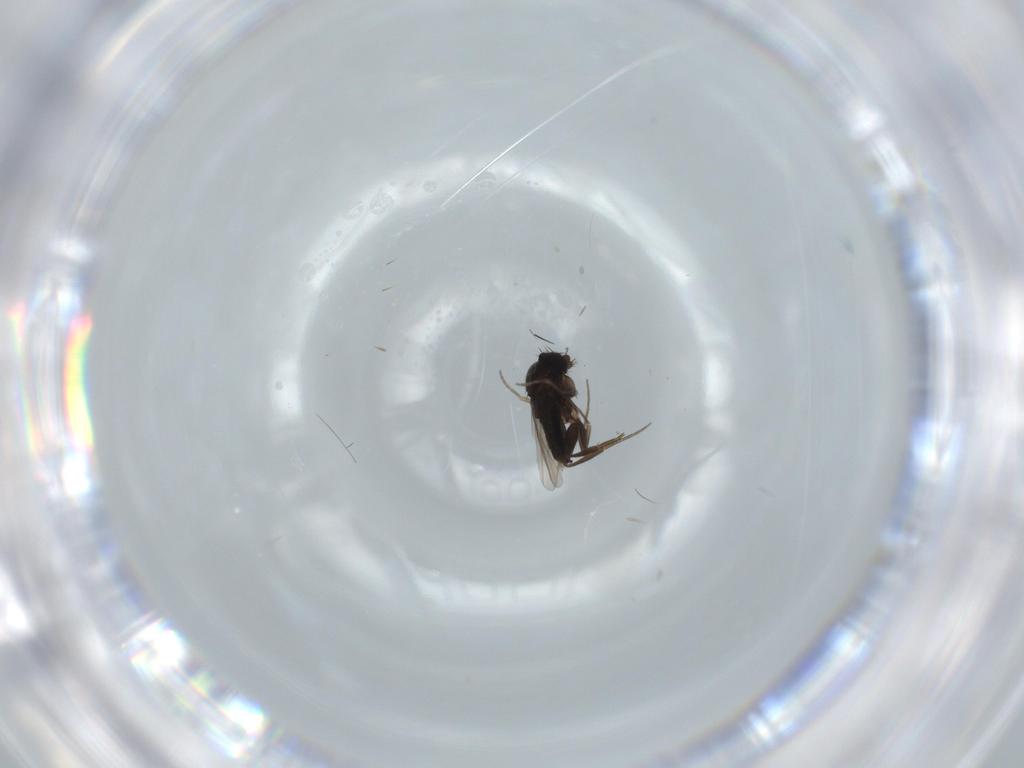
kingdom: Animalia
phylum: Arthropoda
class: Insecta
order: Diptera
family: Phoridae
